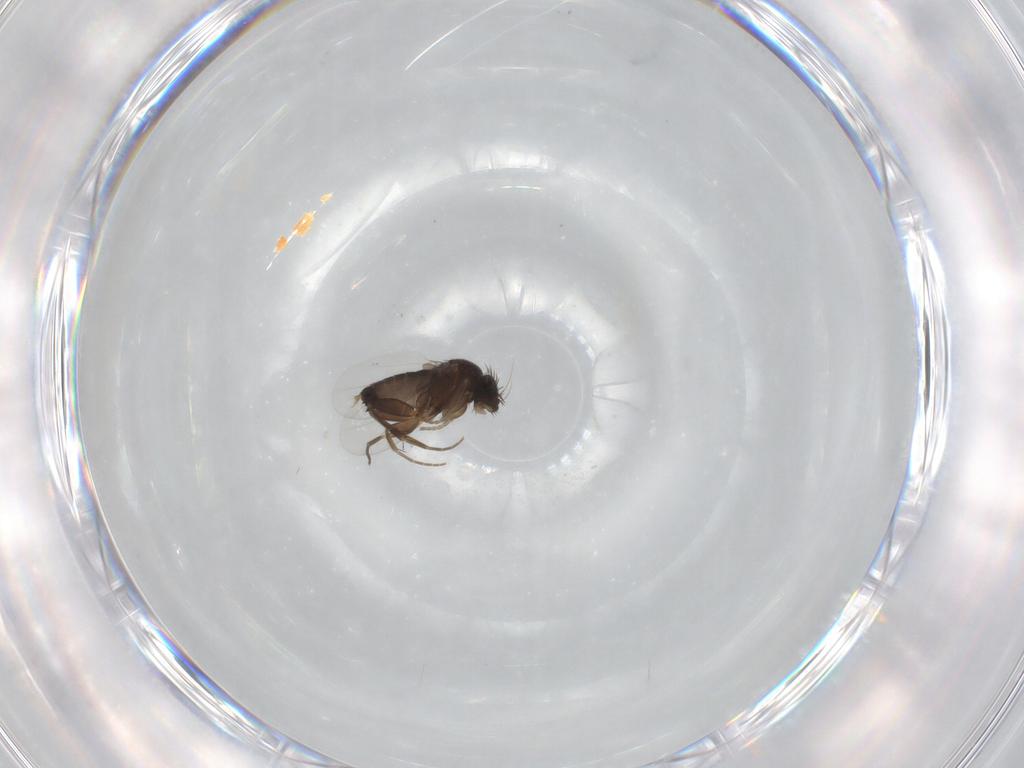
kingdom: Animalia
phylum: Arthropoda
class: Insecta
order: Diptera
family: Phoridae
